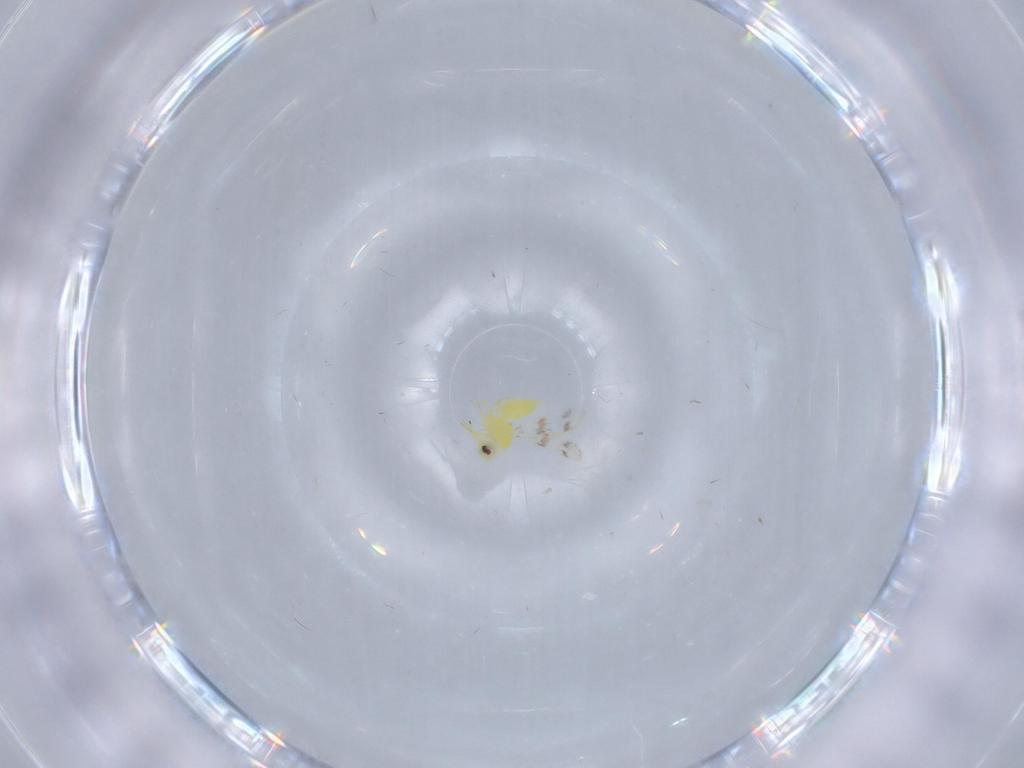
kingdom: Animalia
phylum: Arthropoda
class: Insecta
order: Hemiptera
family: Aleyrodidae
